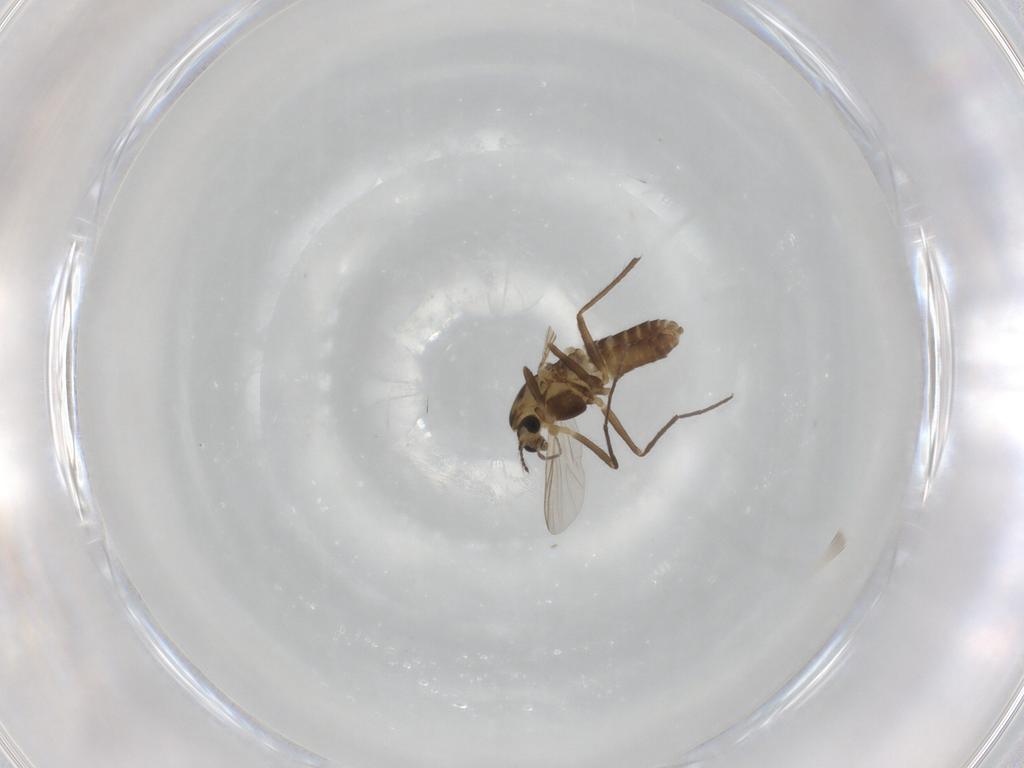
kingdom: Animalia
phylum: Arthropoda
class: Insecta
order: Diptera
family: Chironomidae
